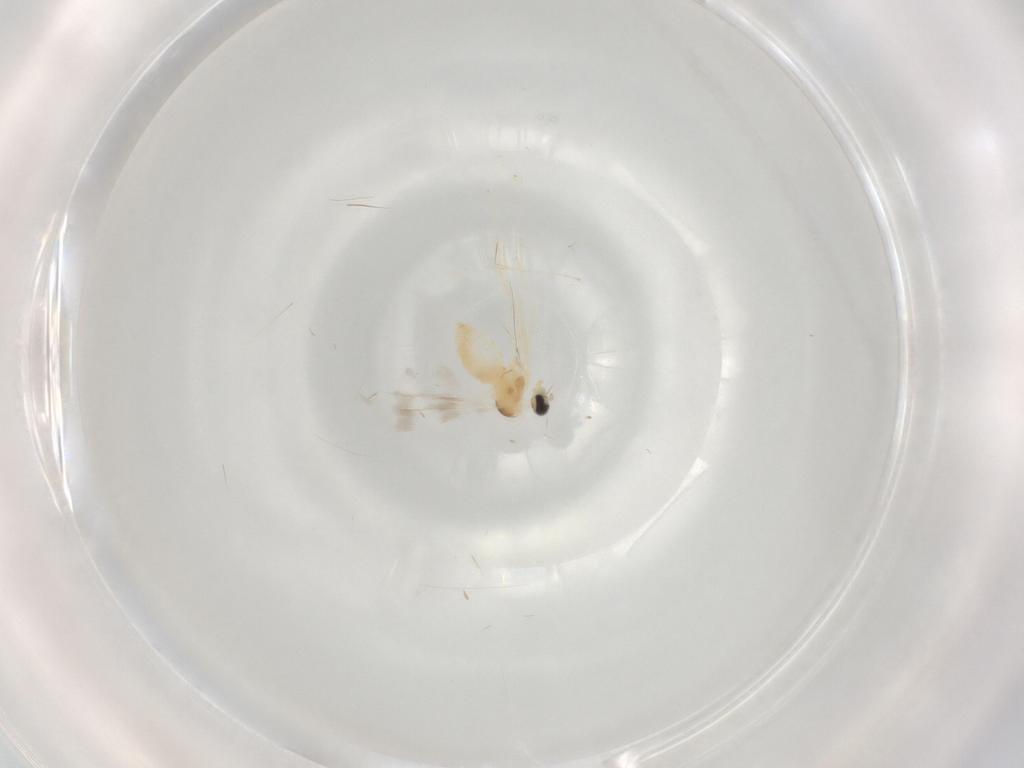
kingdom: Animalia
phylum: Arthropoda
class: Insecta
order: Diptera
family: Cecidomyiidae
